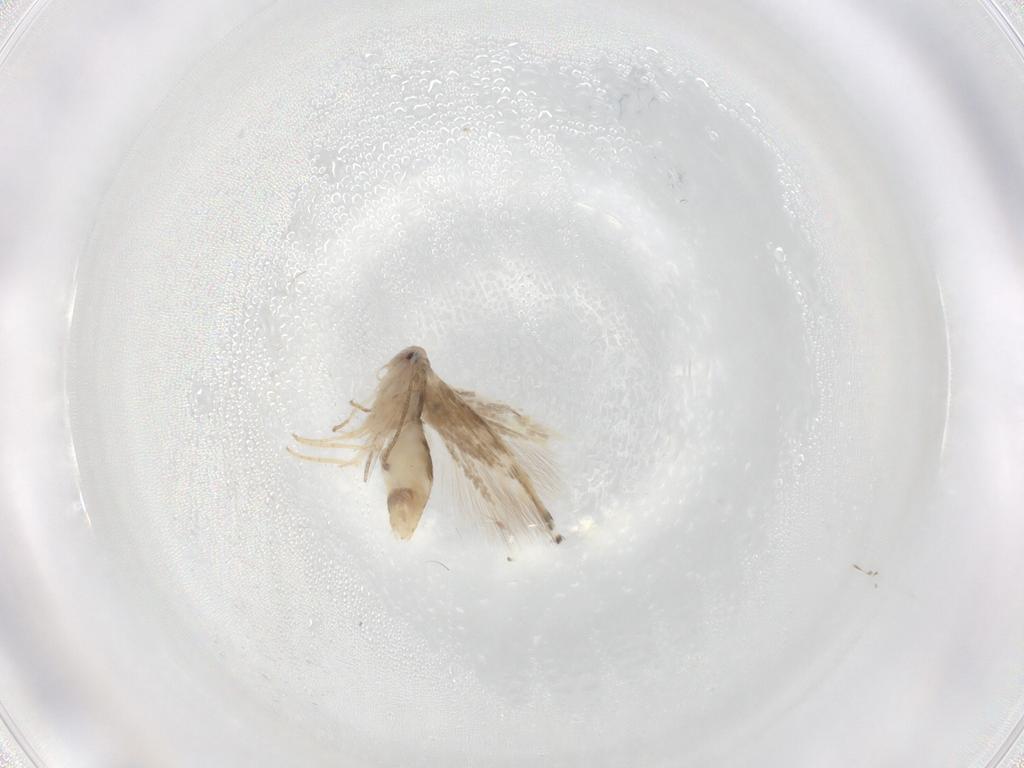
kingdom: Animalia
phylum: Arthropoda
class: Insecta
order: Lepidoptera
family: Lyonetiidae
